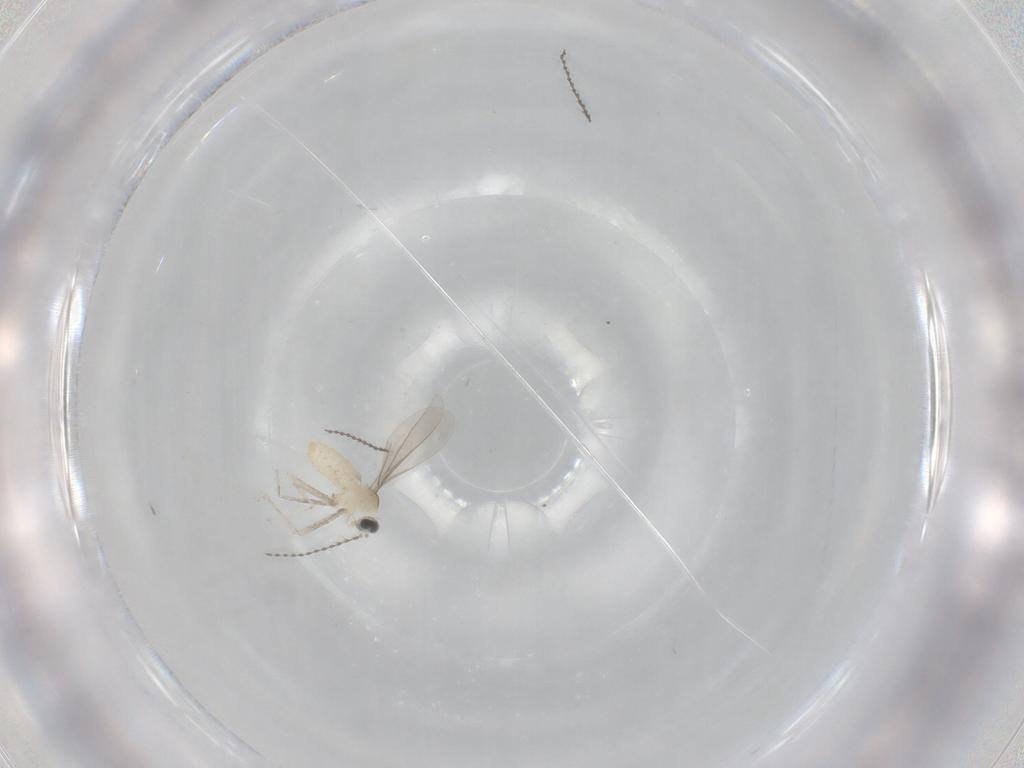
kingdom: Animalia
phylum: Arthropoda
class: Insecta
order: Diptera
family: Cecidomyiidae
